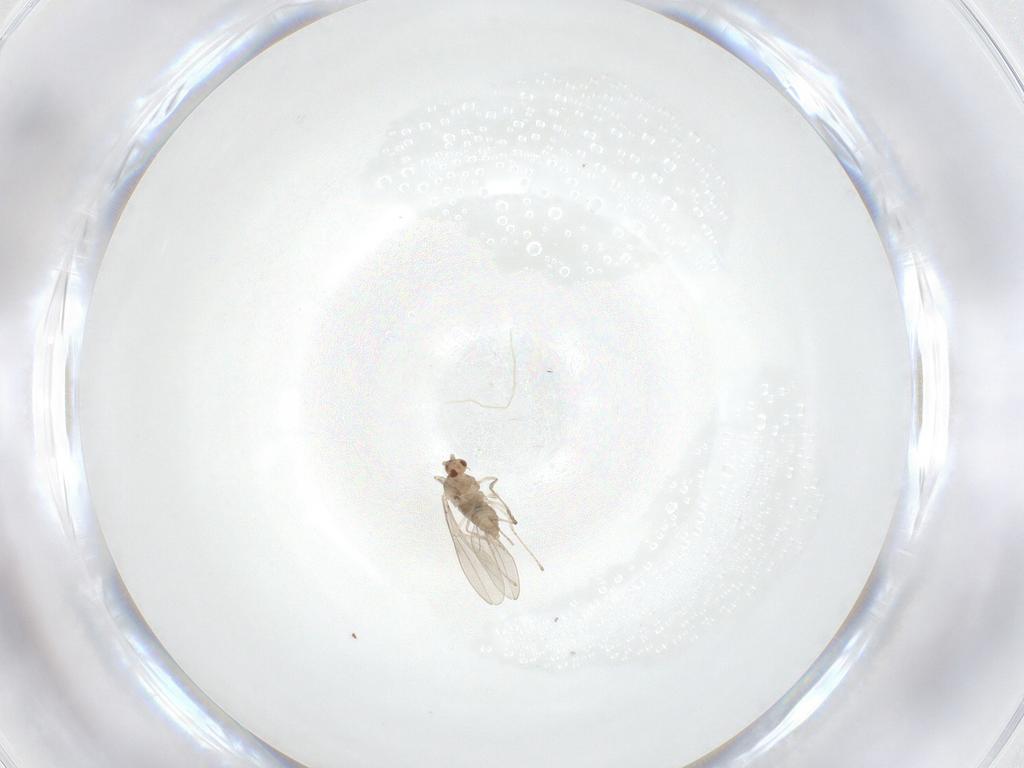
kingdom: Animalia
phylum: Arthropoda
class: Insecta
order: Diptera
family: Cecidomyiidae
